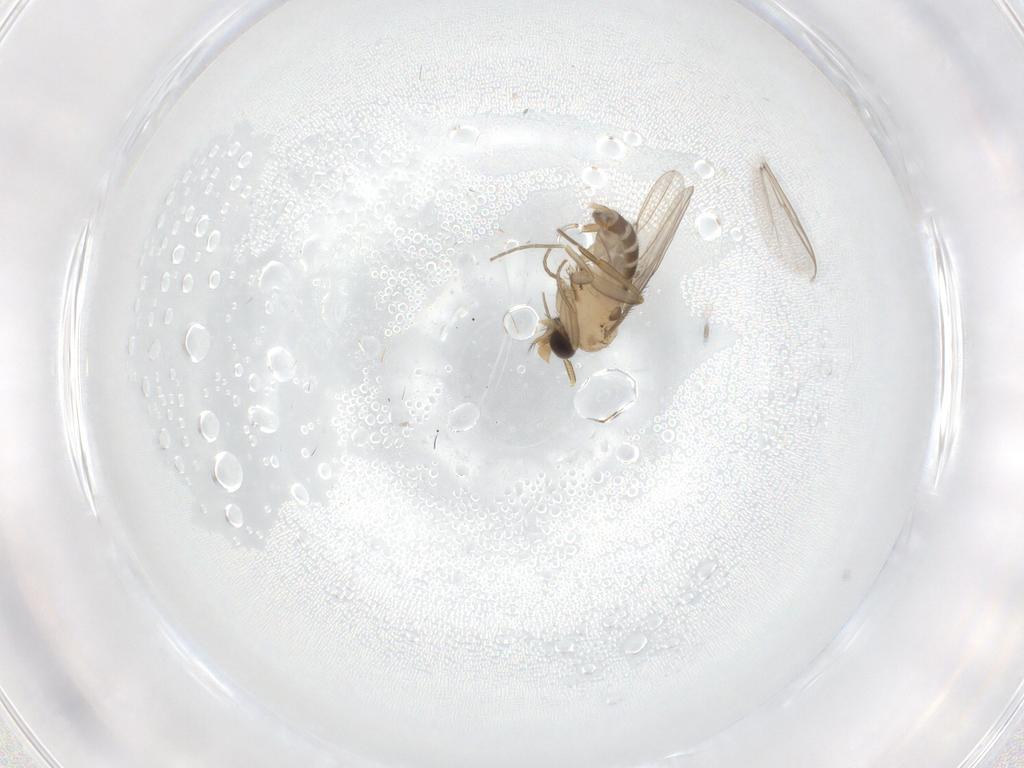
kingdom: Animalia
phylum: Arthropoda
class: Insecta
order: Diptera
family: Chironomidae
